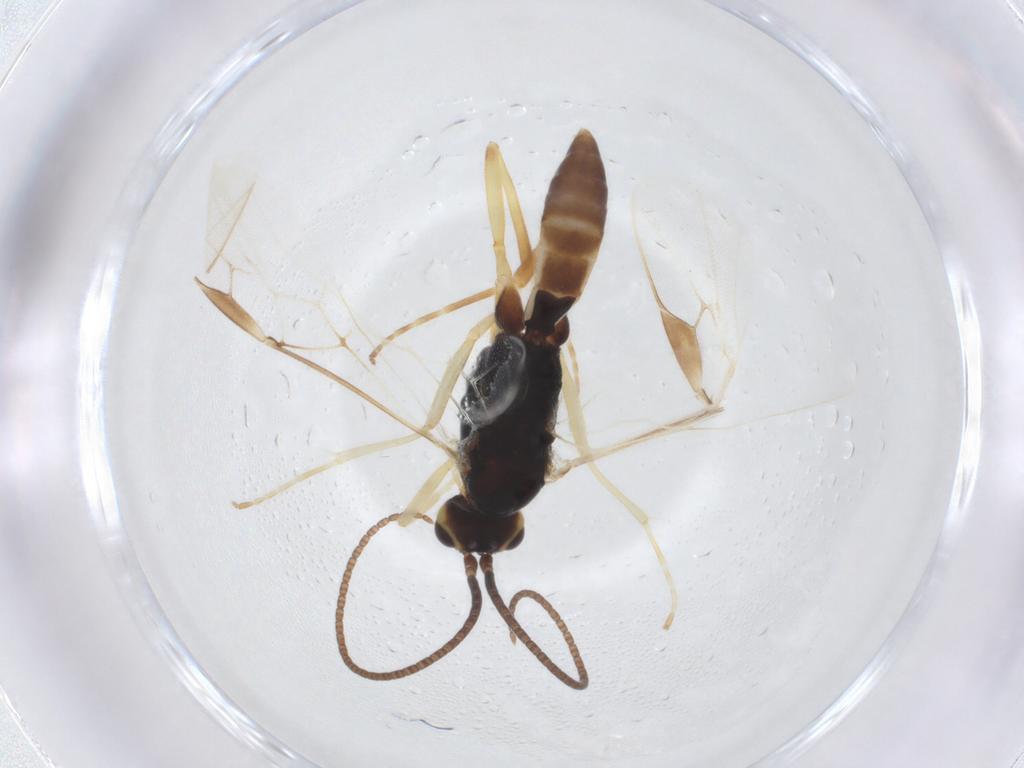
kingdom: Animalia
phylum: Arthropoda
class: Insecta
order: Hymenoptera
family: Braconidae
